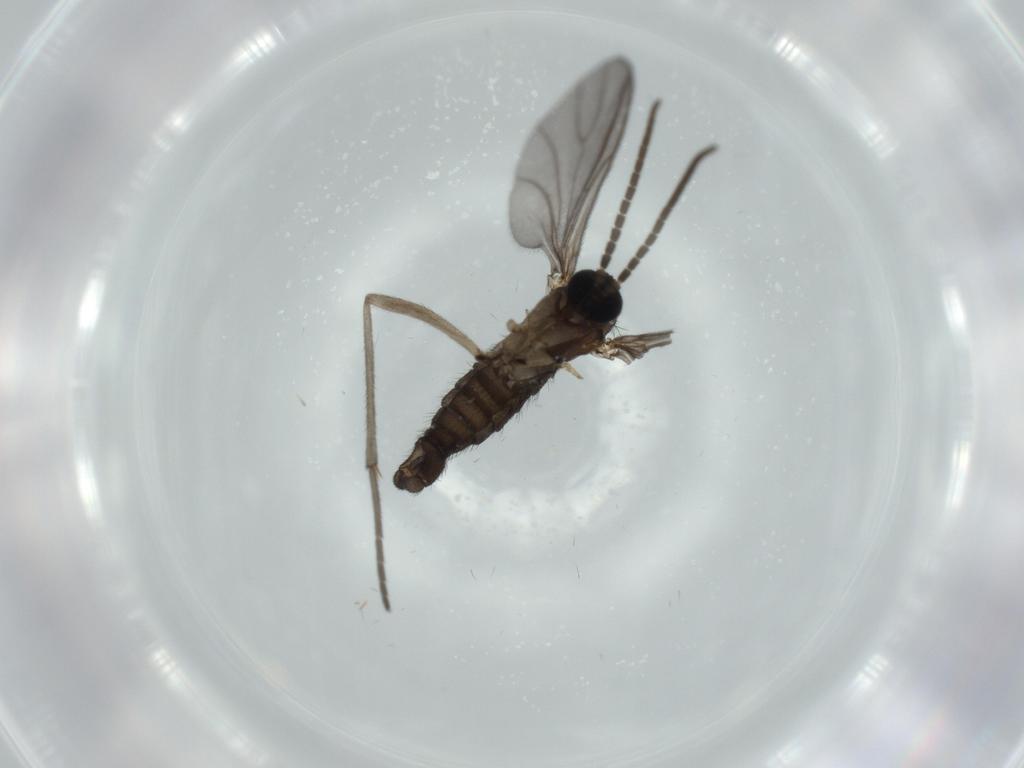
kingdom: Animalia
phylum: Arthropoda
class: Insecta
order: Diptera
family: Sciaridae
